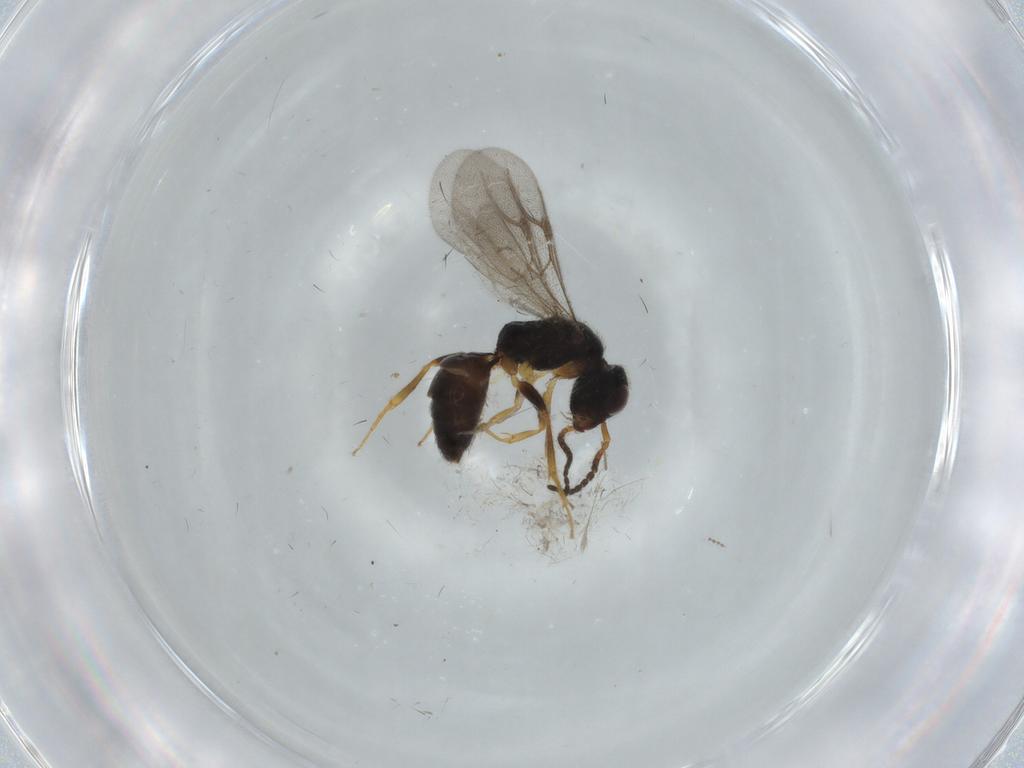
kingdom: Animalia
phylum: Arthropoda
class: Insecta
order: Hymenoptera
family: Bethylidae
